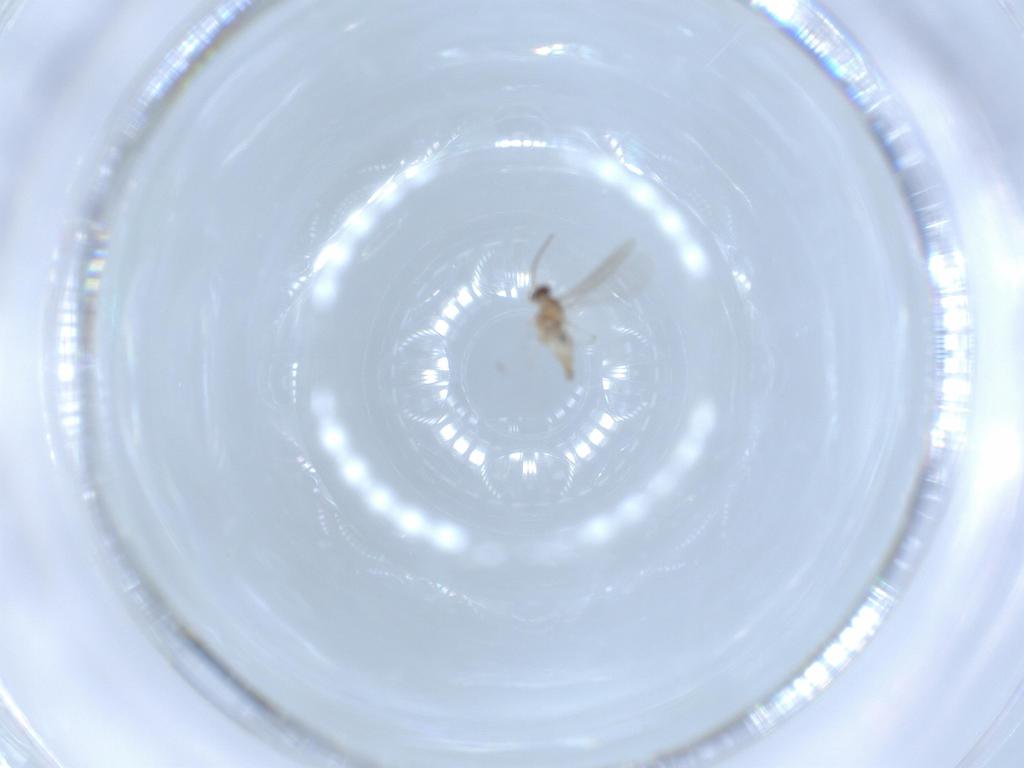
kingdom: Animalia
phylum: Arthropoda
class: Insecta
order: Diptera
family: Cecidomyiidae
